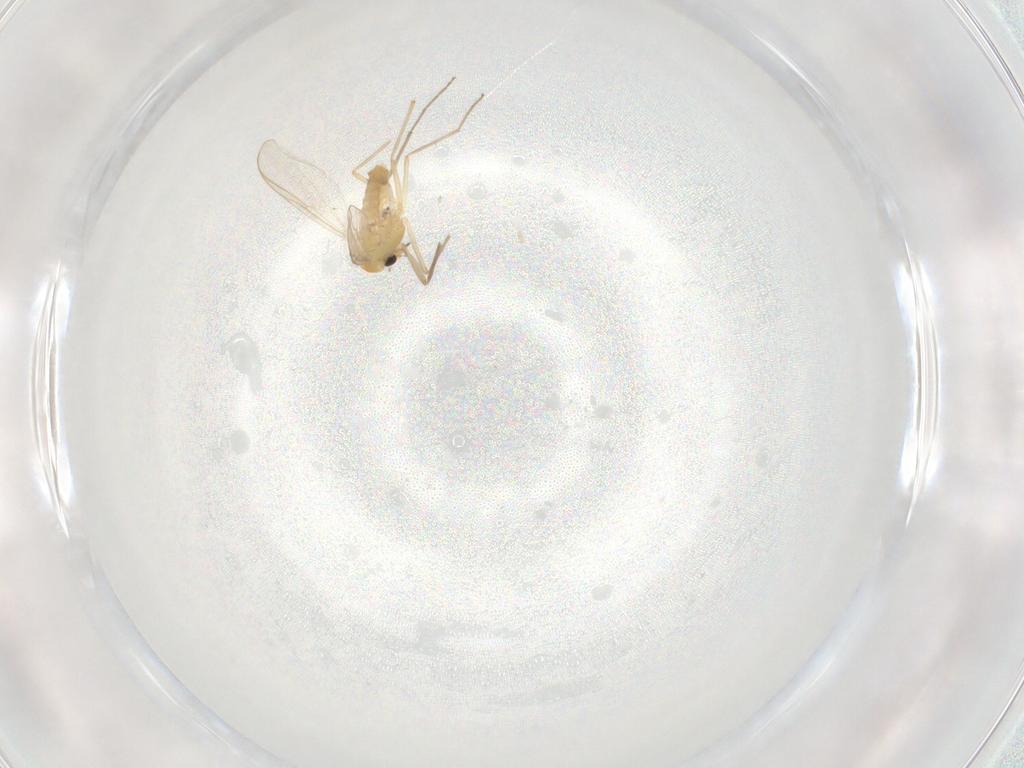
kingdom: Animalia
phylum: Arthropoda
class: Insecta
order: Diptera
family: Chironomidae
